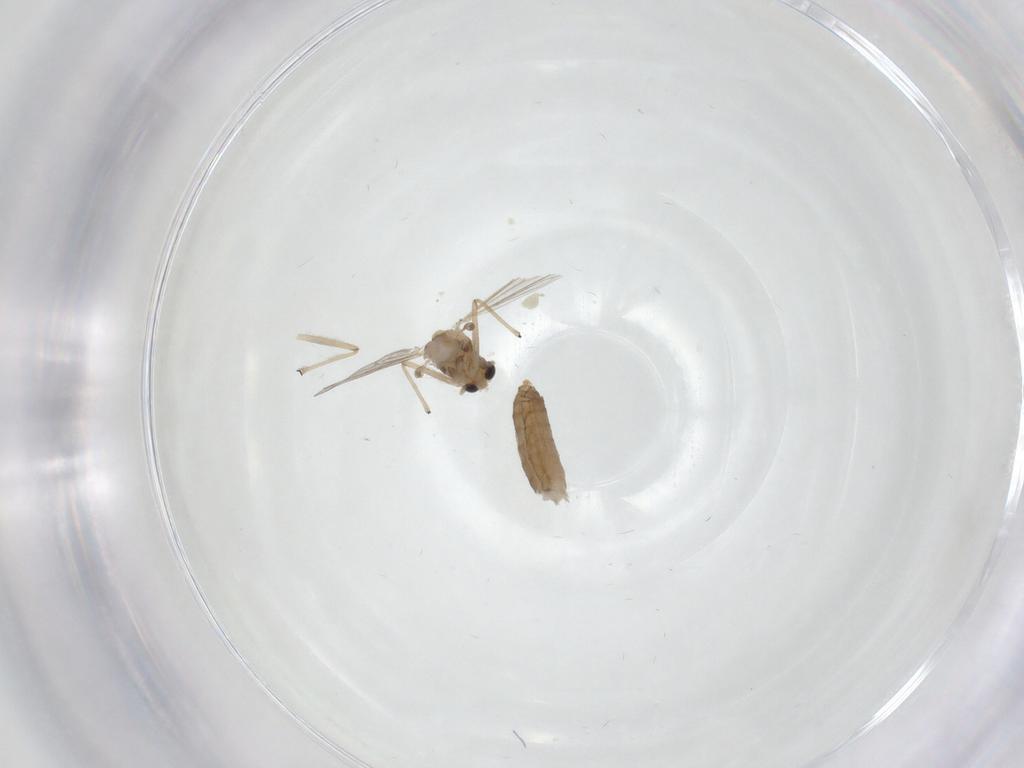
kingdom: Animalia
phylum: Arthropoda
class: Insecta
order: Diptera
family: Chironomidae
